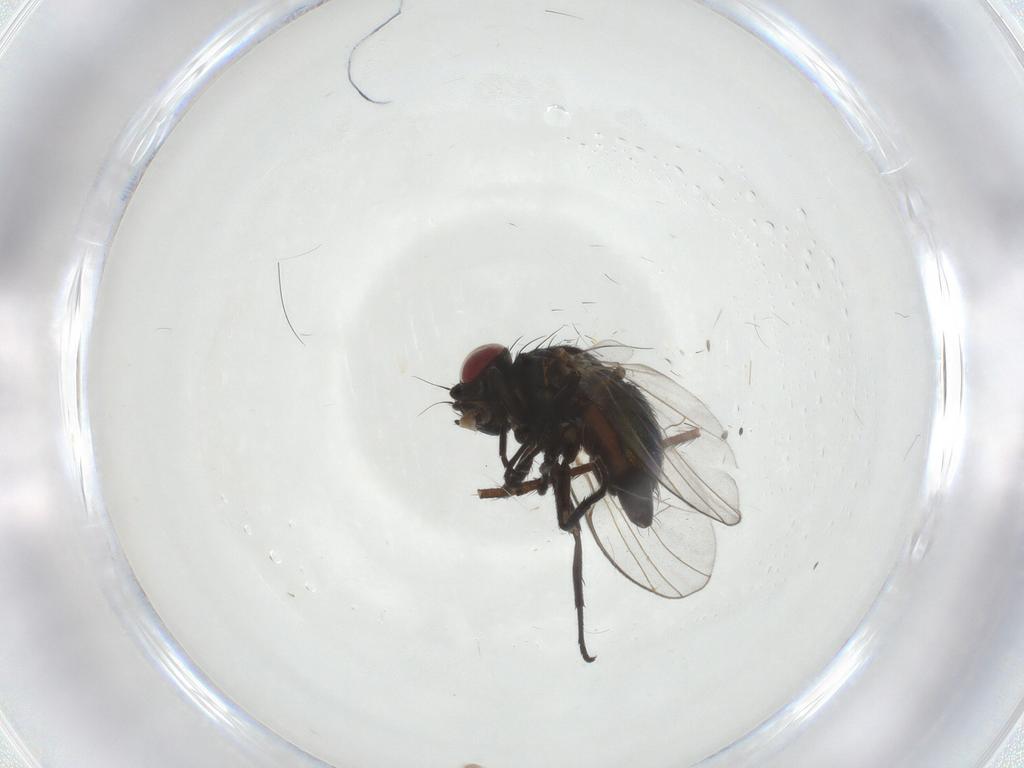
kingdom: Animalia
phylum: Arthropoda
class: Insecta
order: Diptera
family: Agromyzidae
